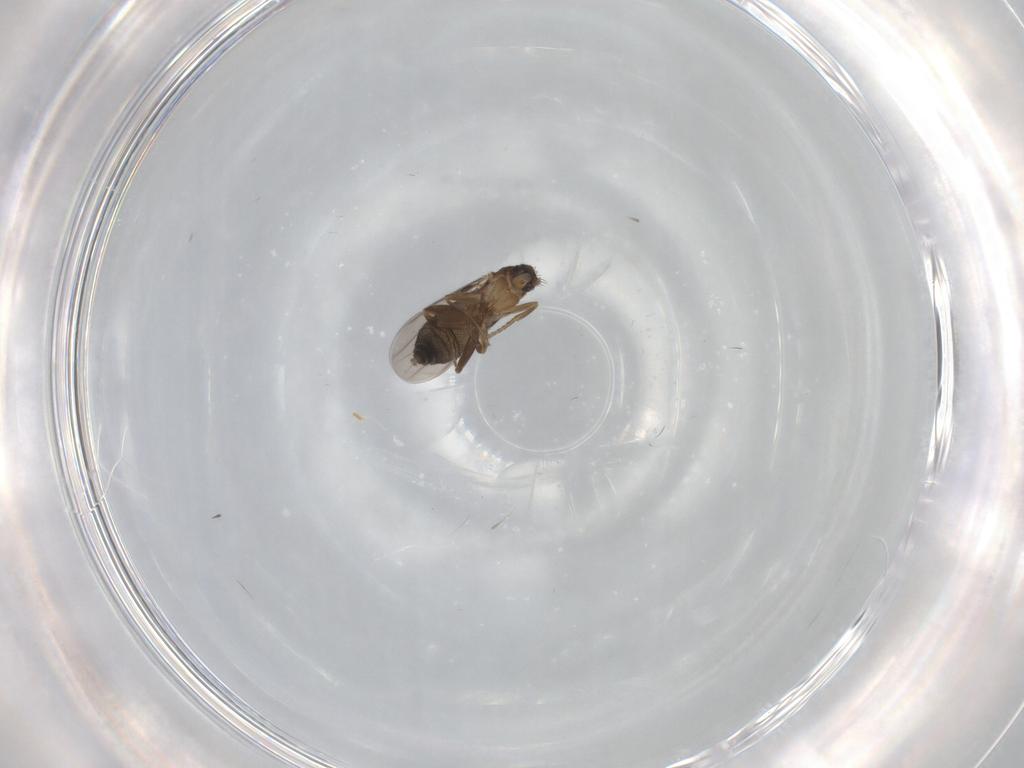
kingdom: Animalia
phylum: Arthropoda
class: Insecta
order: Diptera
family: Phoridae
